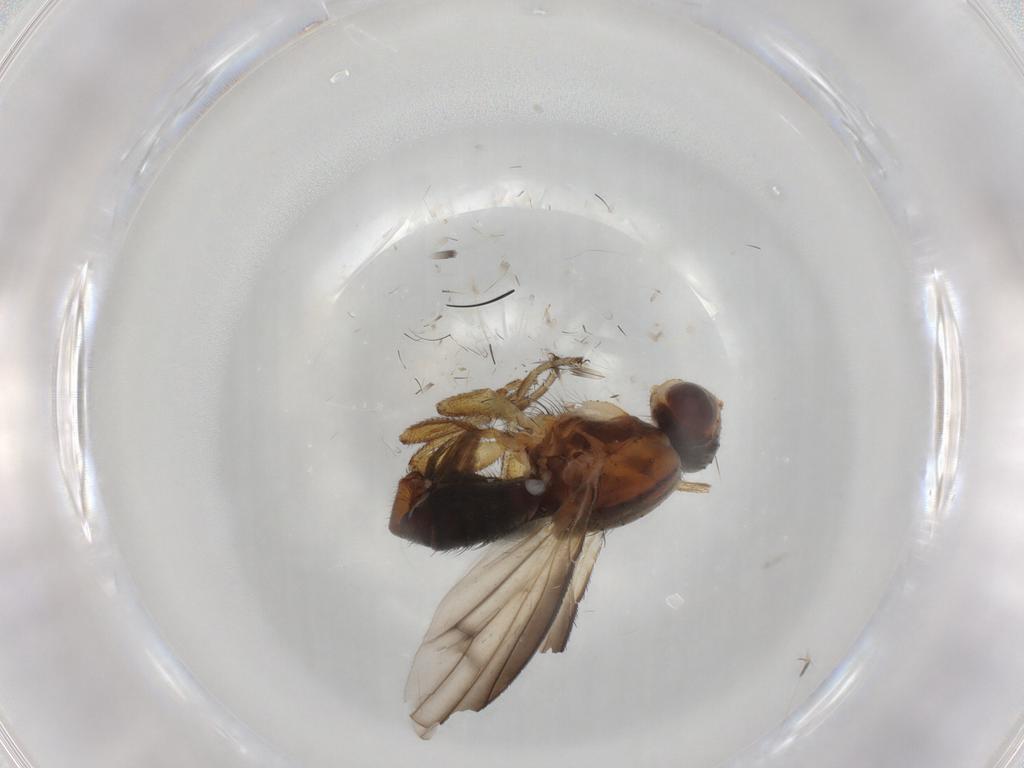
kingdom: Animalia
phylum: Arthropoda
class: Insecta
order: Diptera
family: Heleomyzidae
